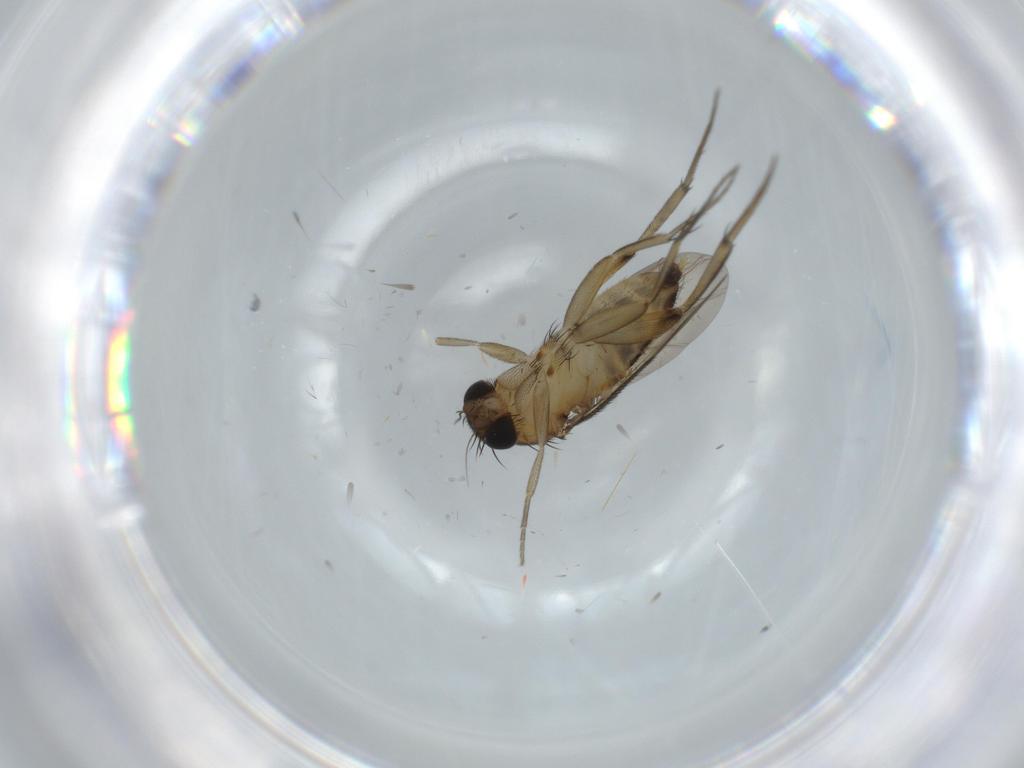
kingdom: Animalia
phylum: Arthropoda
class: Insecta
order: Diptera
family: Phoridae
